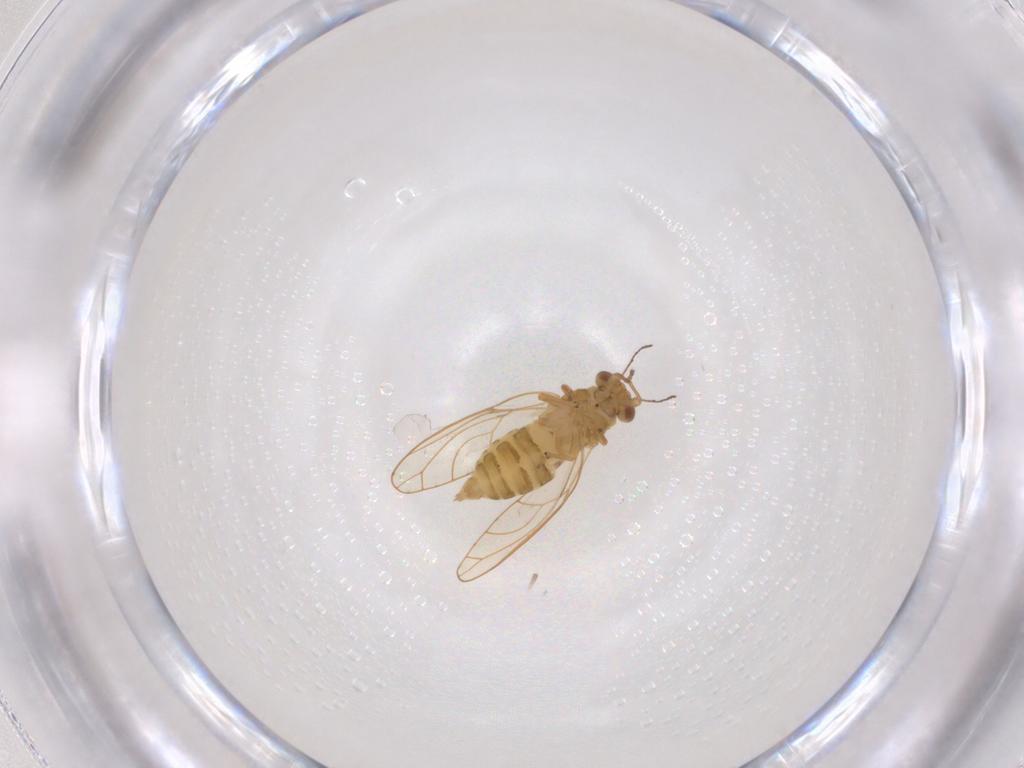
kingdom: Animalia
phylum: Arthropoda
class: Insecta
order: Hemiptera
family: Psylloidea_incertae_sedis
